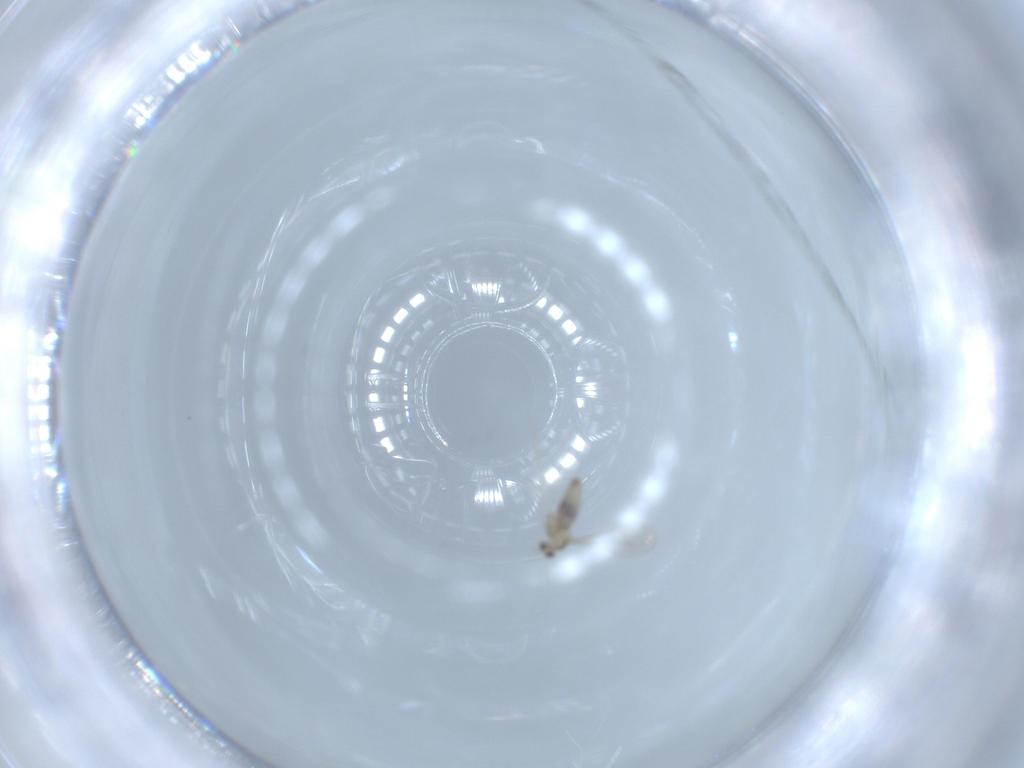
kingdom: Animalia
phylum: Arthropoda
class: Insecta
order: Diptera
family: Cecidomyiidae
